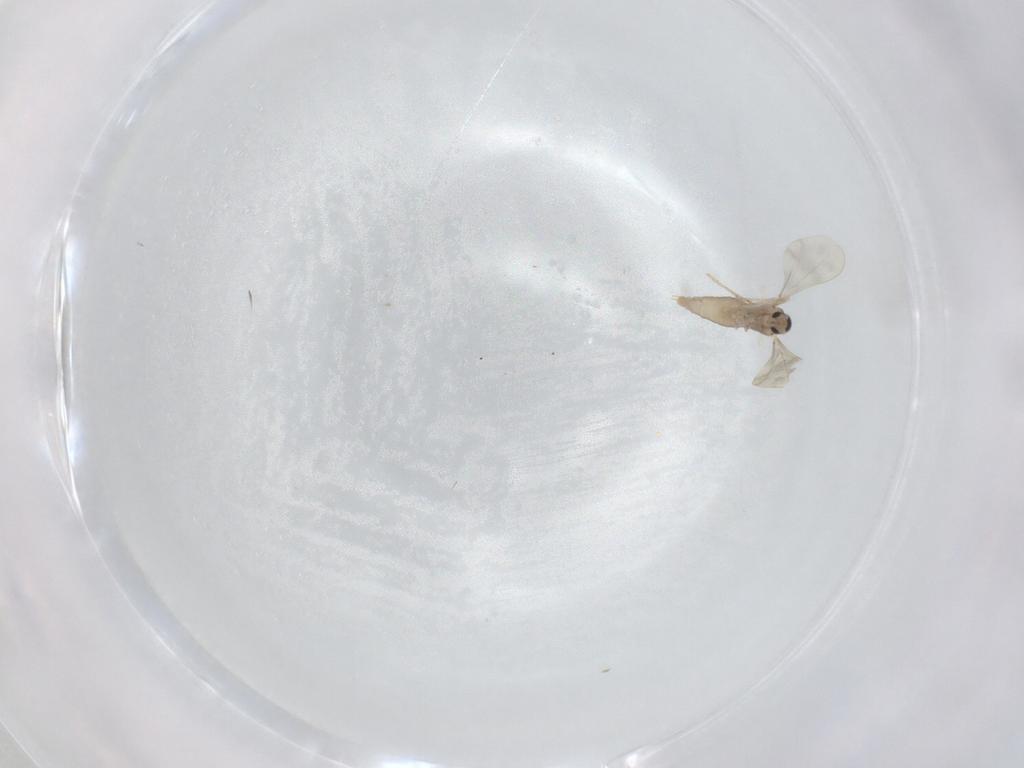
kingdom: Animalia
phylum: Arthropoda
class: Insecta
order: Diptera
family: Cecidomyiidae
